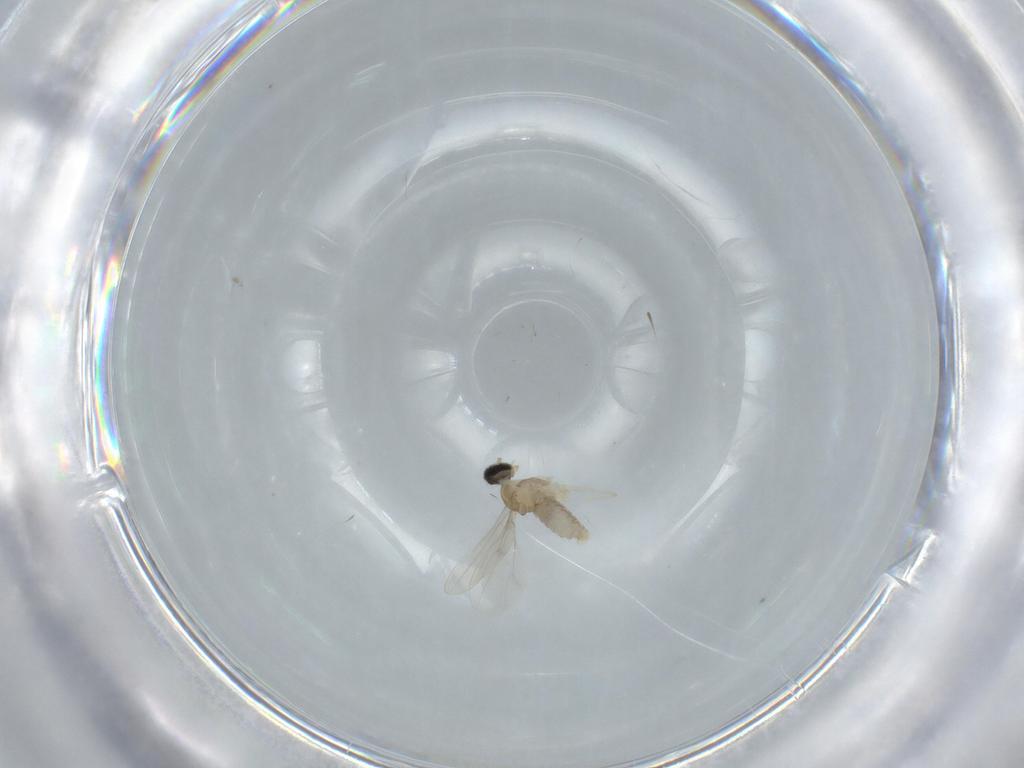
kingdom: Animalia
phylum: Arthropoda
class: Insecta
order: Diptera
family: Cecidomyiidae
